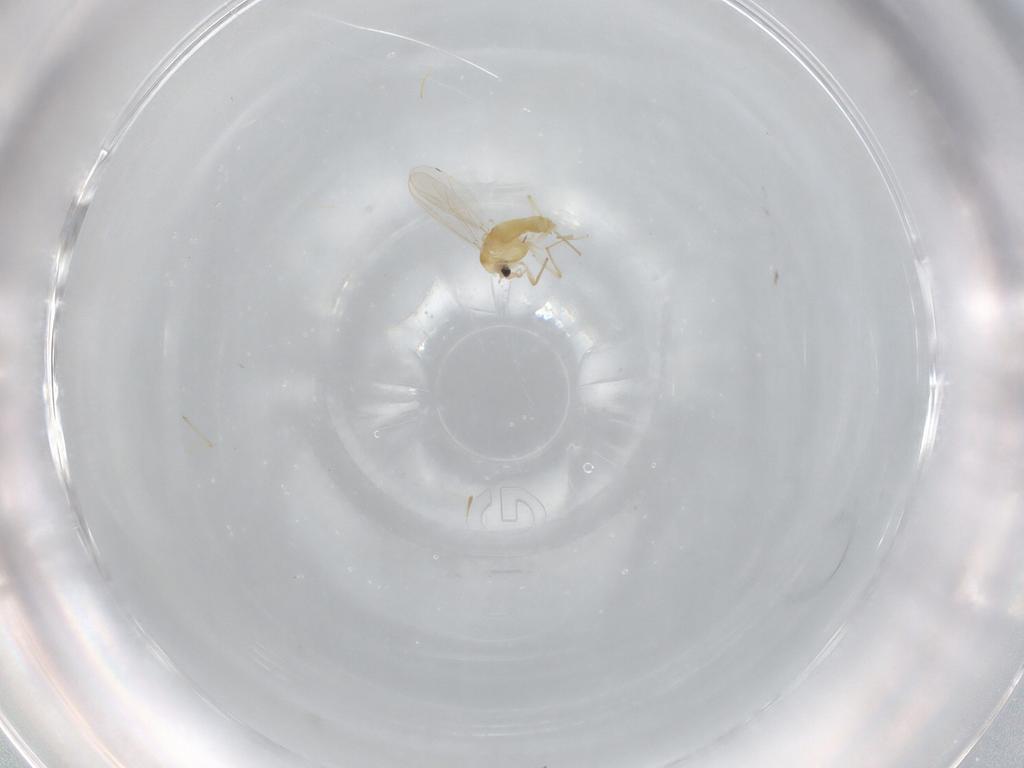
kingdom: Animalia
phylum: Arthropoda
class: Insecta
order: Diptera
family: Chironomidae
